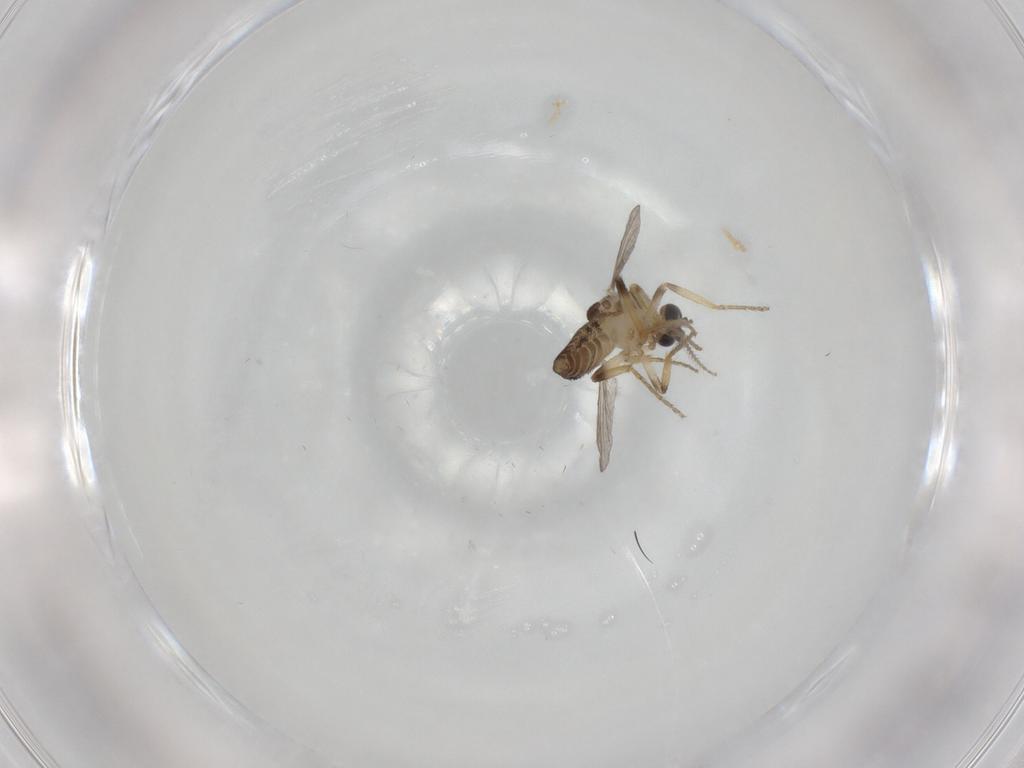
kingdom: Animalia
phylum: Arthropoda
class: Insecta
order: Diptera
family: Ceratopogonidae
